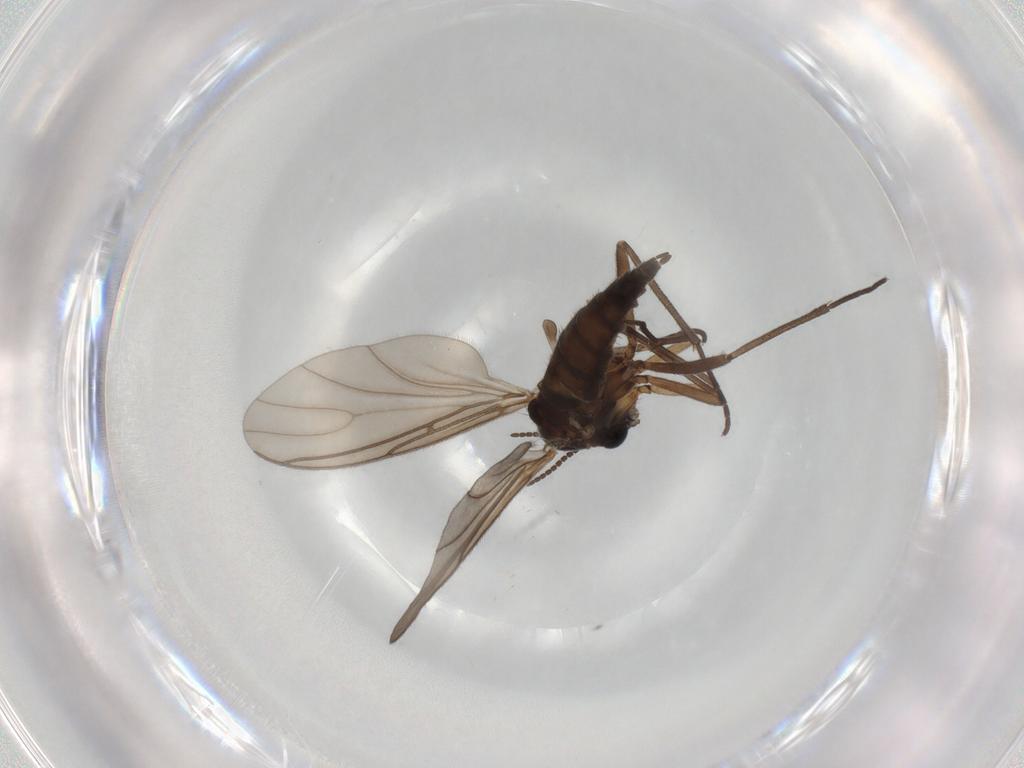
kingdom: Animalia
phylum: Arthropoda
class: Insecta
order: Diptera
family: Sciaridae
